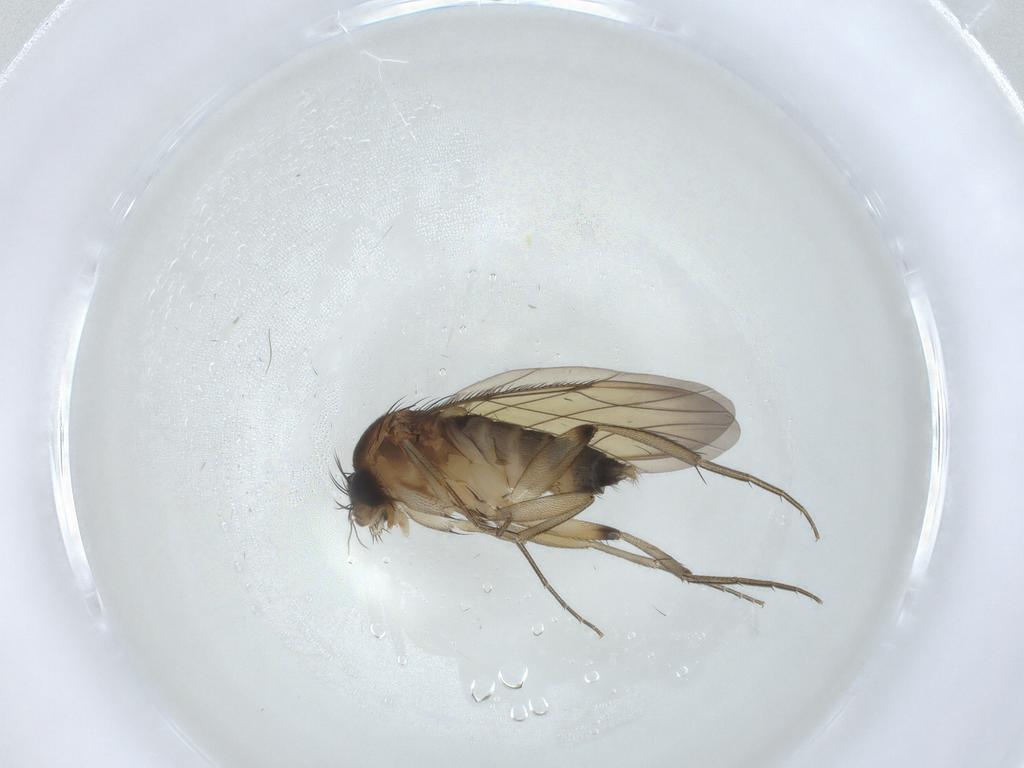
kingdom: Animalia
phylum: Arthropoda
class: Insecta
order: Diptera
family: Phoridae
